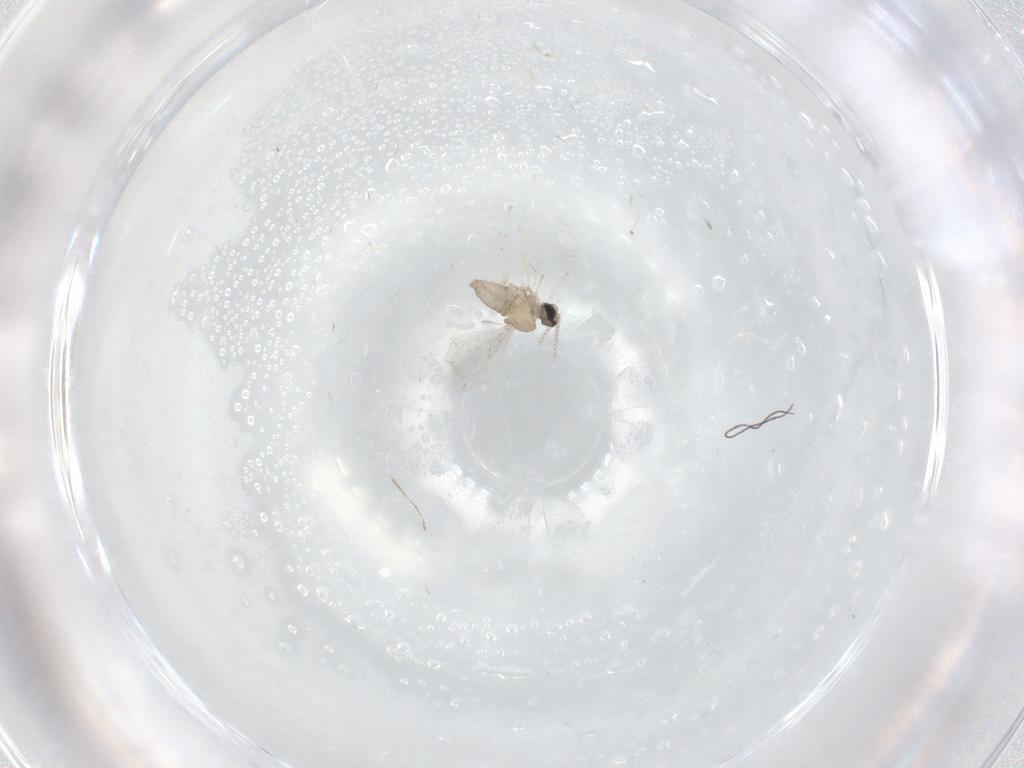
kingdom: Animalia
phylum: Arthropoda
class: Insecta
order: Diptera
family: Cecidomyiidae
